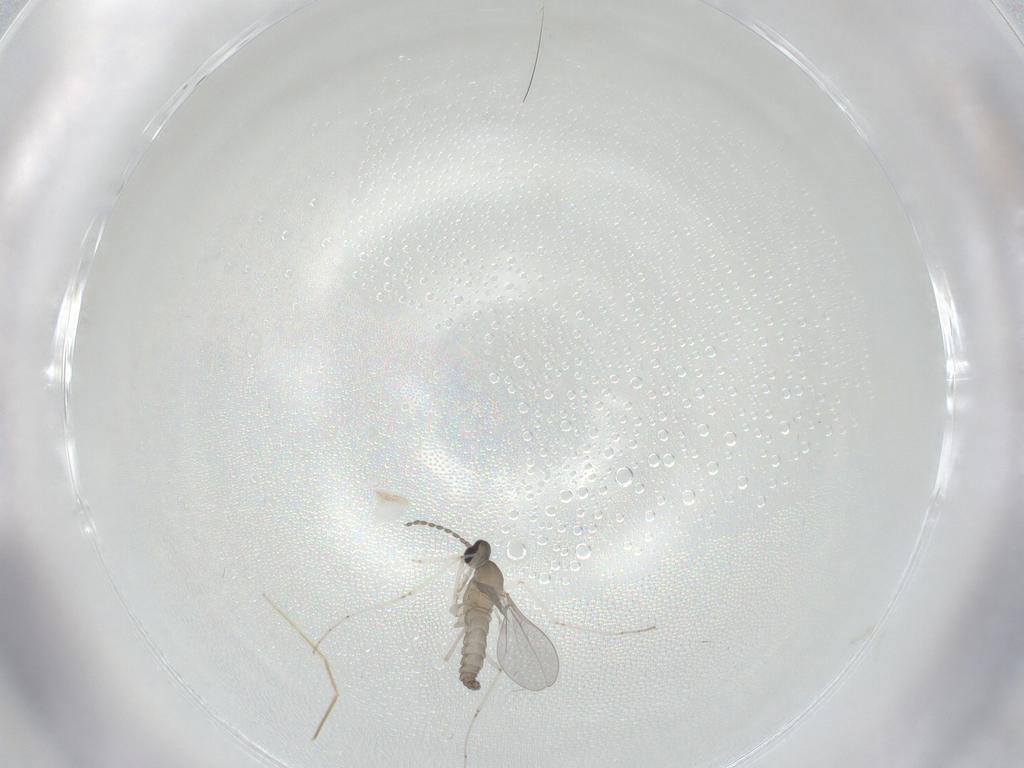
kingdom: Animalia
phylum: Arthropoda
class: Insecta
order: Diptera
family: Cecidomyiidae
